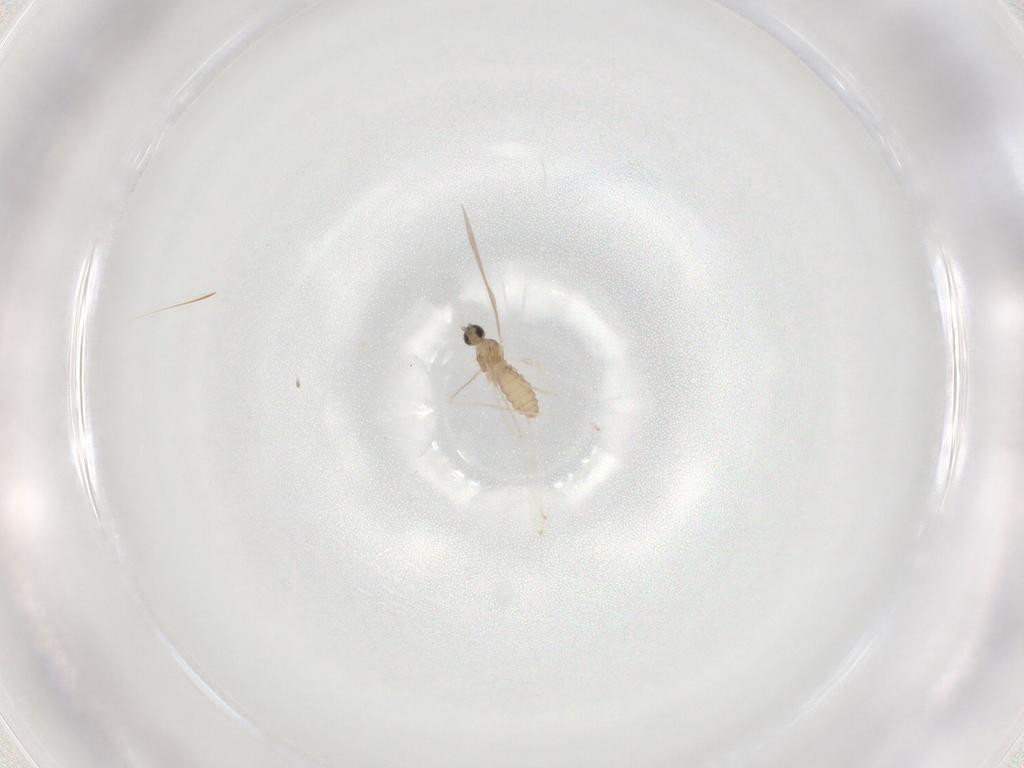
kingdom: Animalia
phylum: Arthropoda
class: Insecta
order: Diptera
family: Cecidomyiidae
